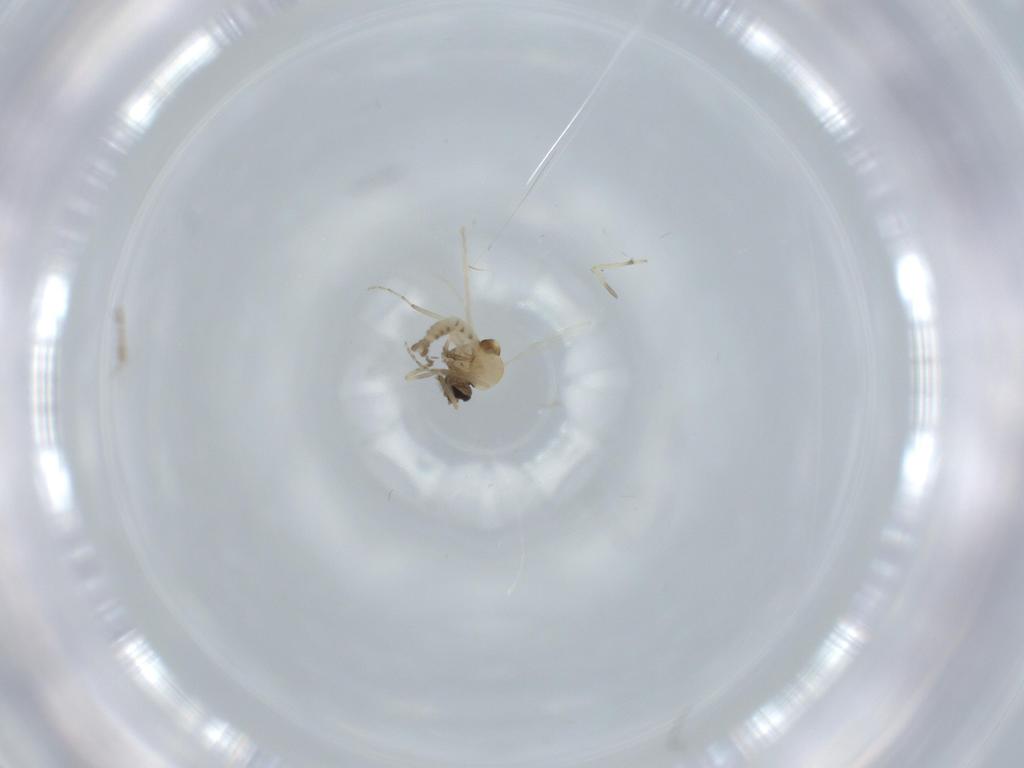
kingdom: Animalia
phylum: Arthropoda
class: Insecta
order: Diptera
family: Ceratopogonidae
